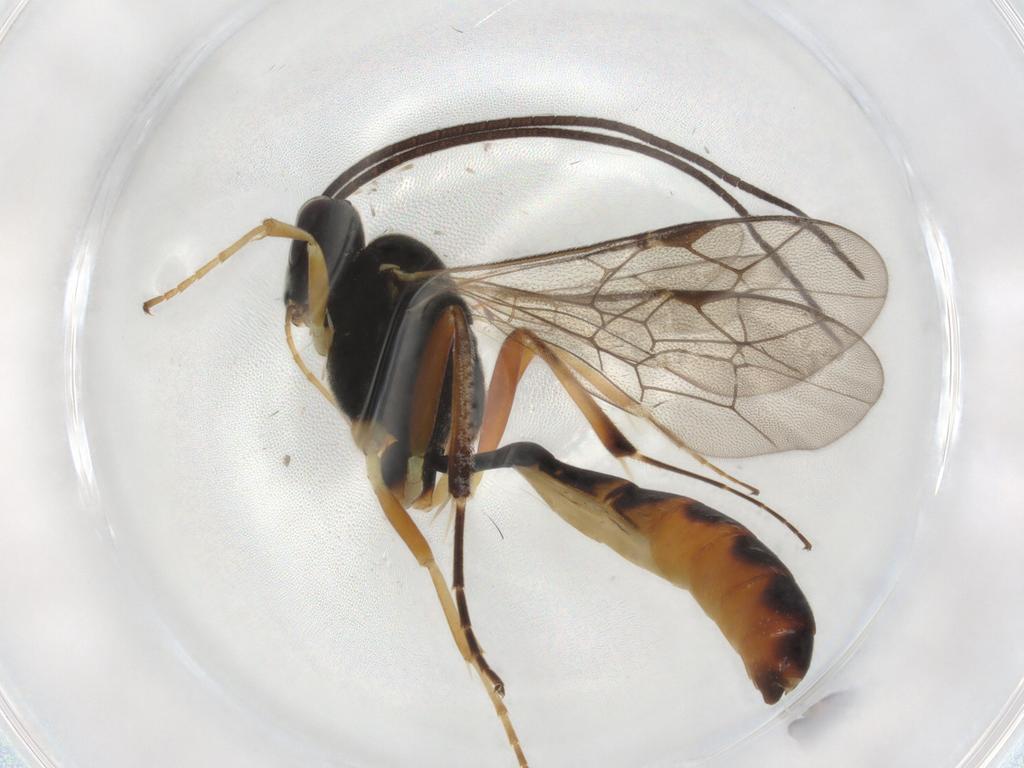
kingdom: Animalia
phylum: Arthropoda
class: Insecta
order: Hymenoptera
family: Ichneumonidae
